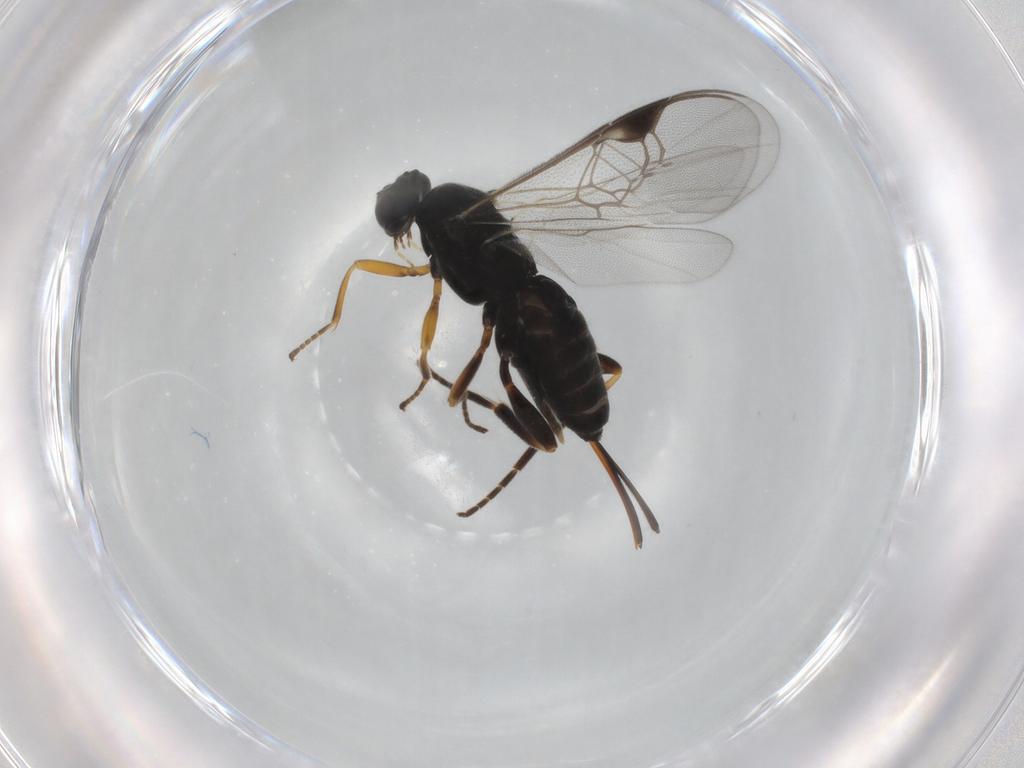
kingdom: Animalia
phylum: Arthropoda
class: Insecta
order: Hymenoptera
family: Braconidae
